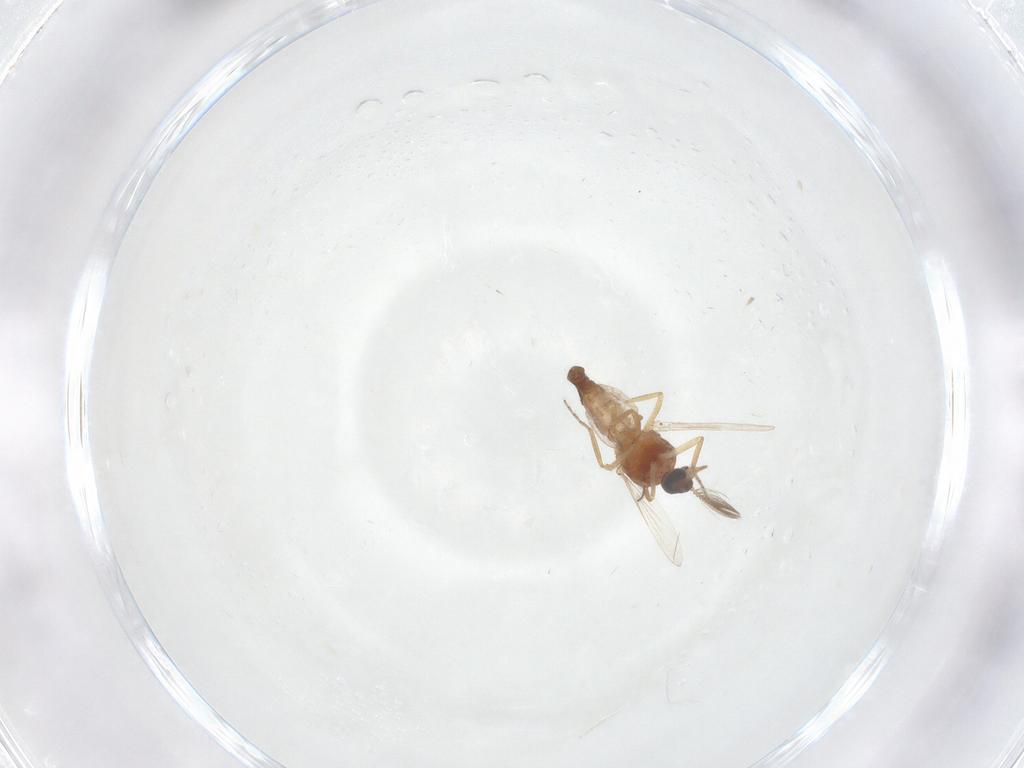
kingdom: Animalia
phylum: Arthropoda
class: Insecta
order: Diptera
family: Ceratopogonidae
